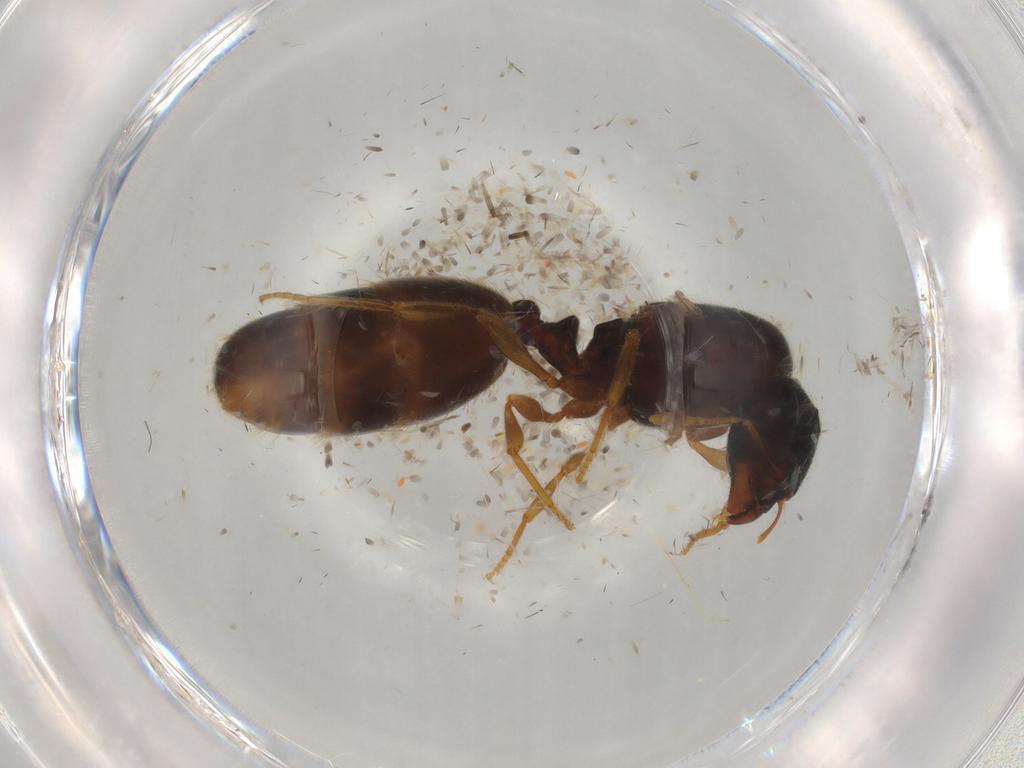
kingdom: Animalia
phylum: Arthropoda
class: Insecta
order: Hymenoptera
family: Formicidae
